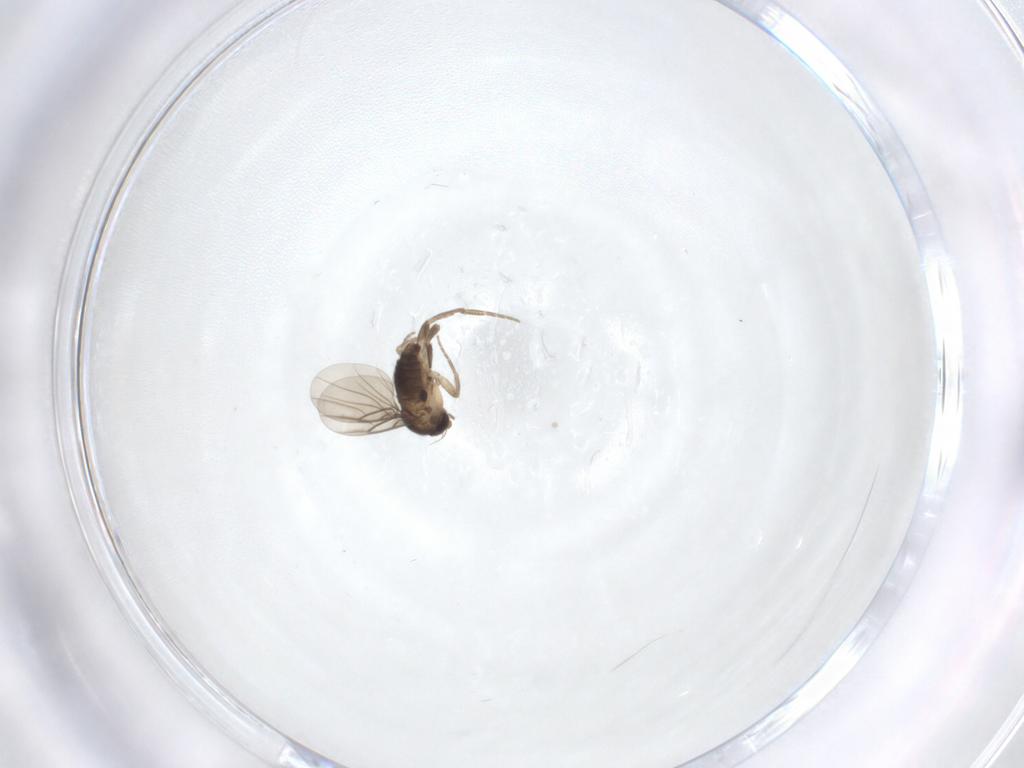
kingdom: Animalia
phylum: Arthropoda
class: Insecta
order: Diptera
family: Phoridae
